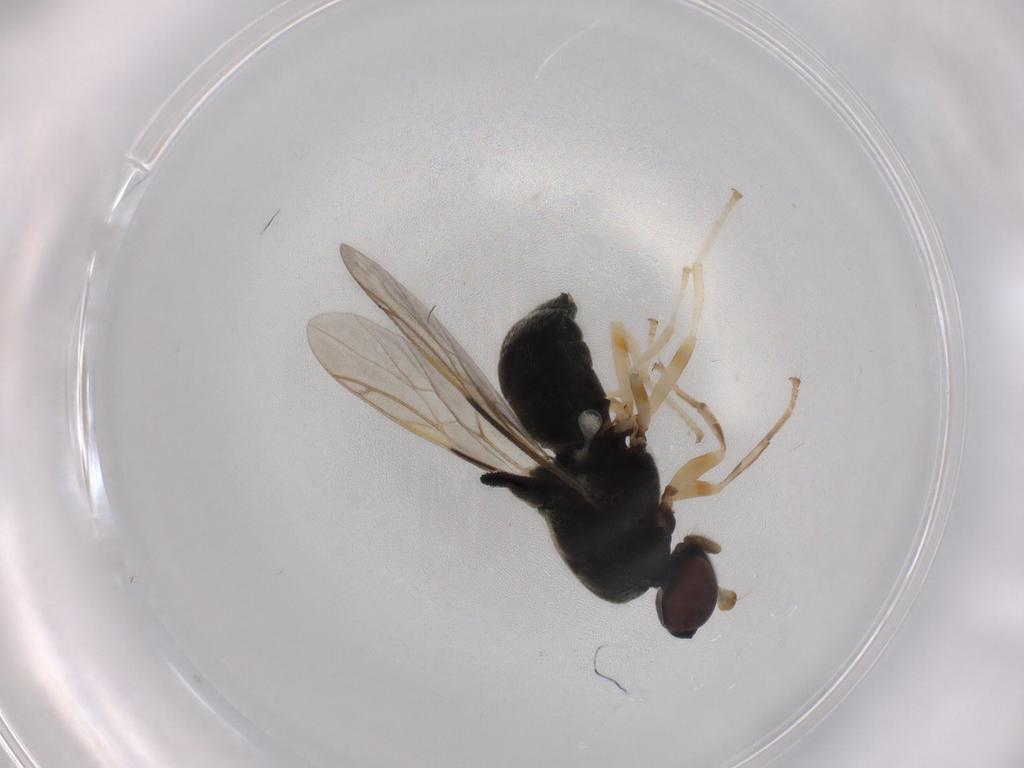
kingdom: Animalia
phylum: Arthropoda
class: Insecta
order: Diptera
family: Stratiomyidae
